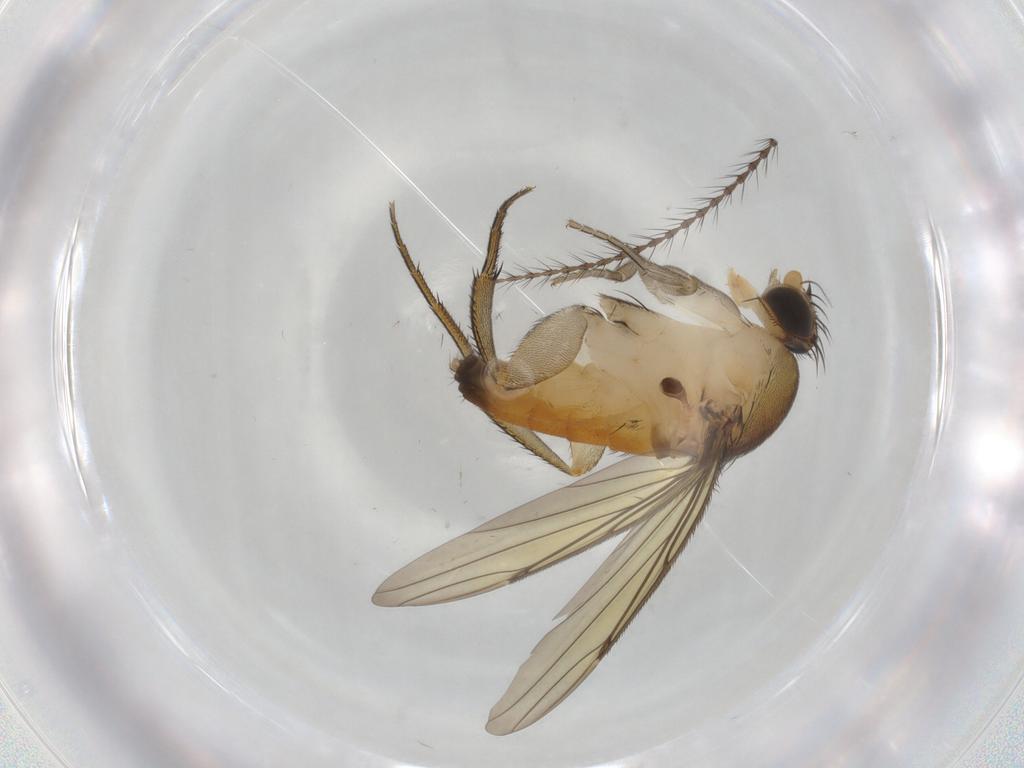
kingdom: Animalia
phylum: Arthropoda
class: Insecta
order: Diptera
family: Phoridae
